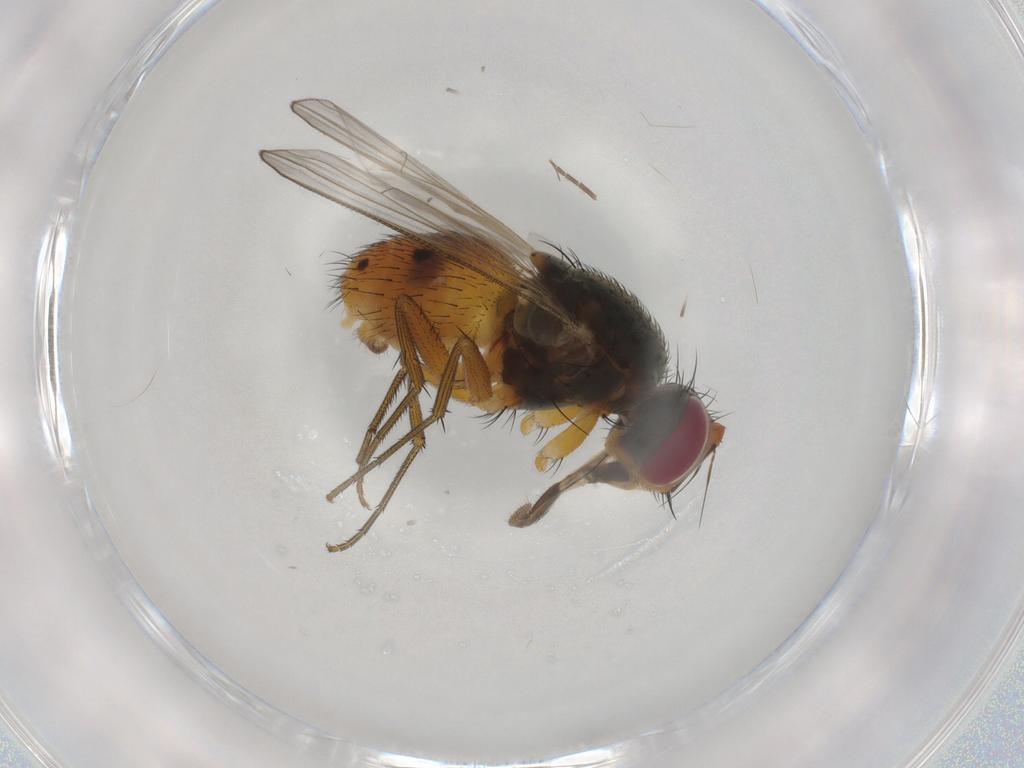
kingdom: Animalia
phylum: Arthropoda
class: Insecta
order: Diptera
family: Muscidae
